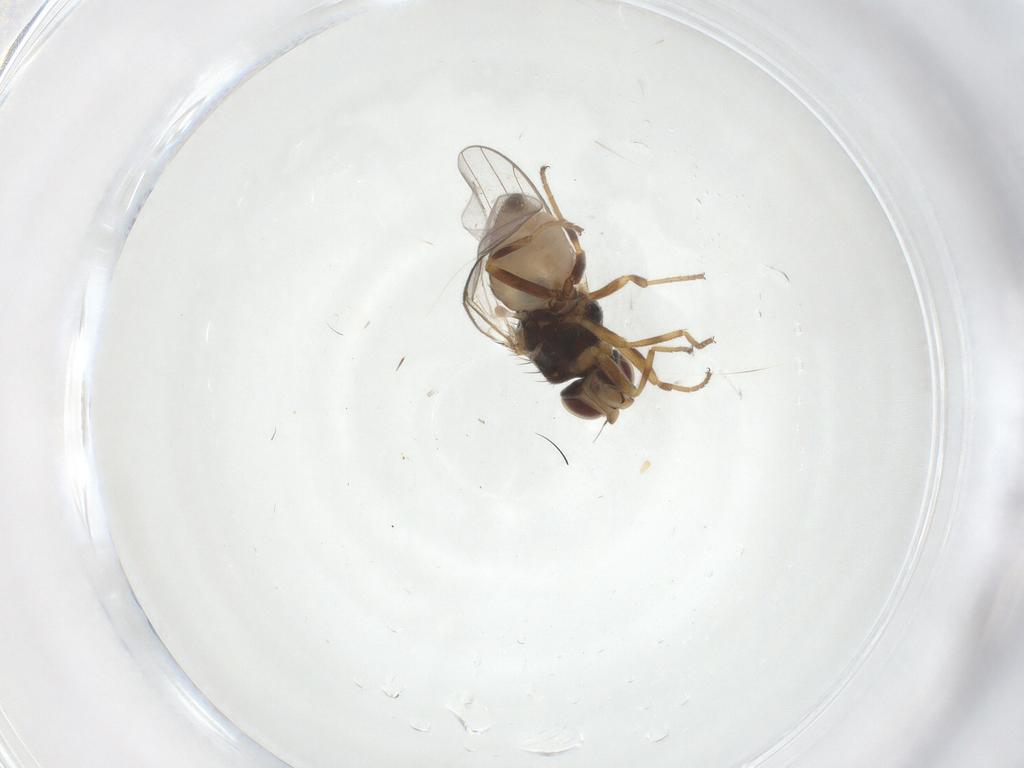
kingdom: Animalia
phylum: Arthropoda
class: Insecta
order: Diptera
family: Chloropidae
